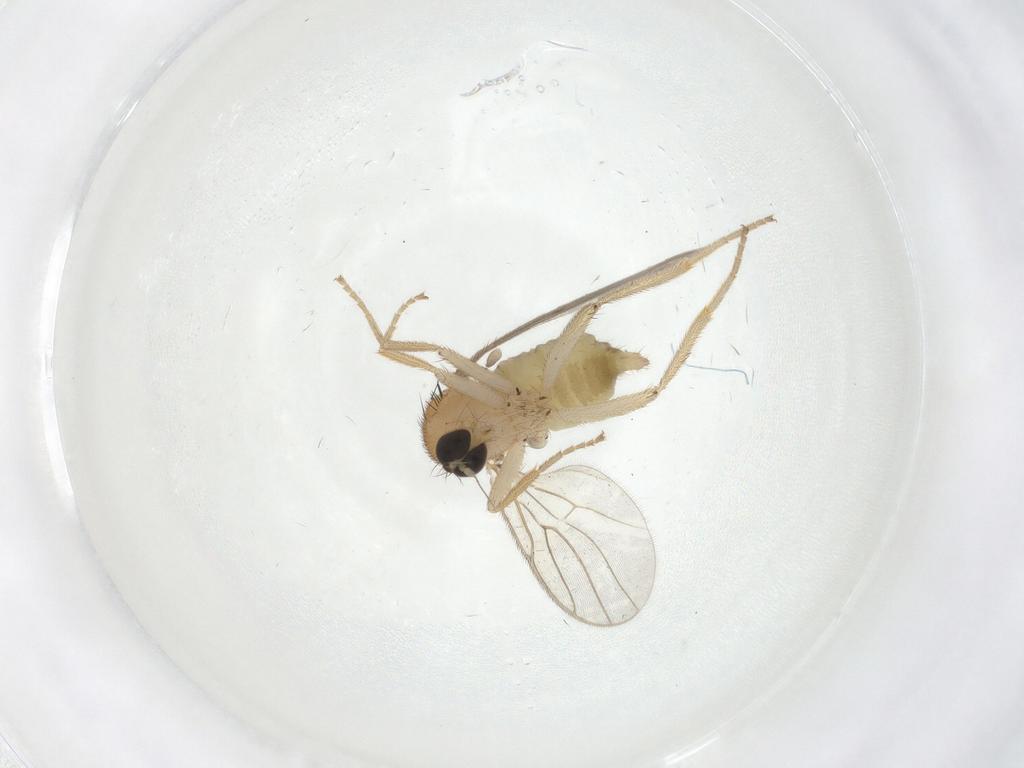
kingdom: Animalia
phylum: Arthropoda
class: Insecta
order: Diptera
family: Hybotidae
